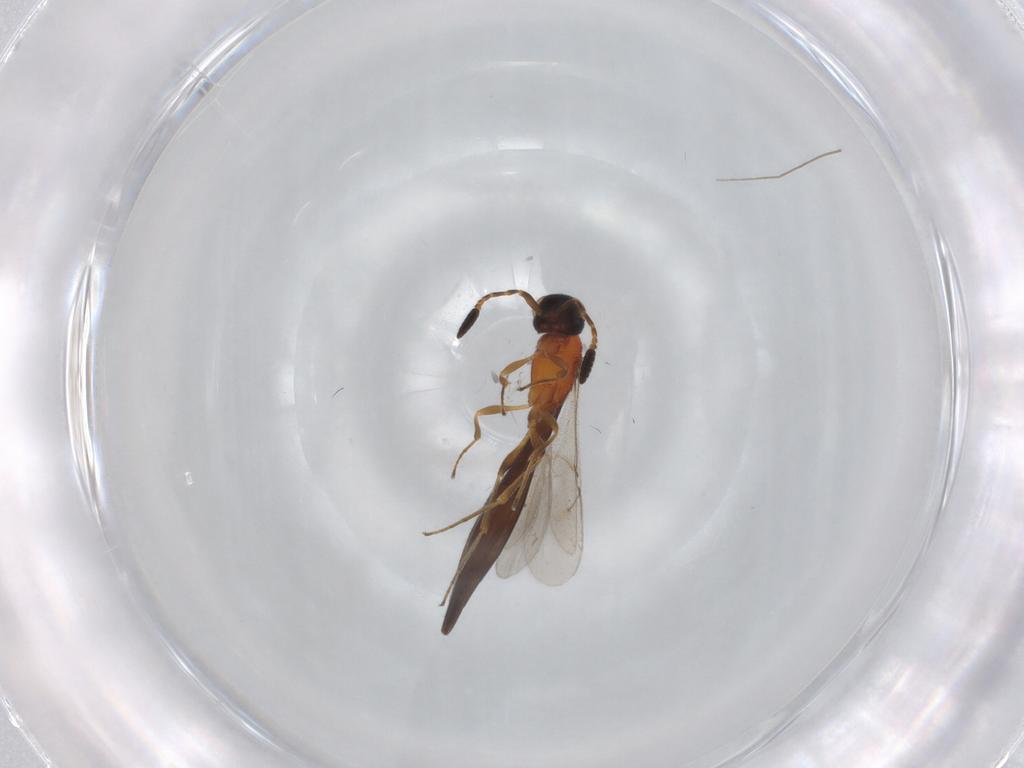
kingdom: Animalia
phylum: Arthropoda
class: Insecta
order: Hymenoptera
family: Scelionidae
